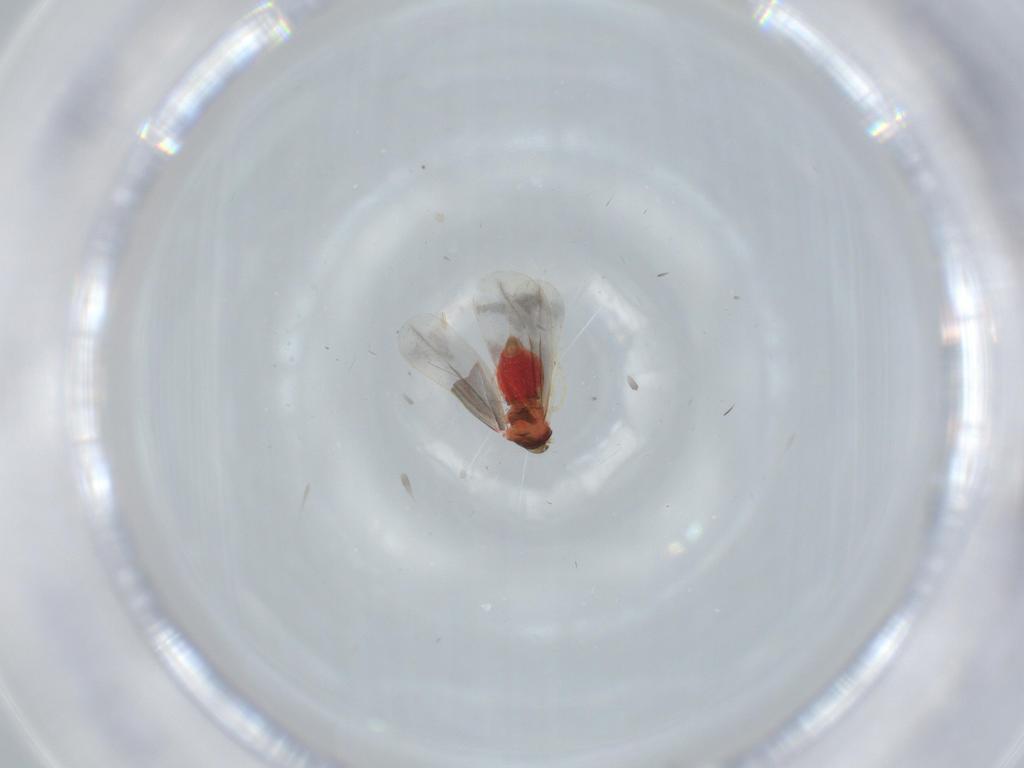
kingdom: Animalia
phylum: Arthropoda
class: Insecta
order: Hemiptera
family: Aleyrodidae
